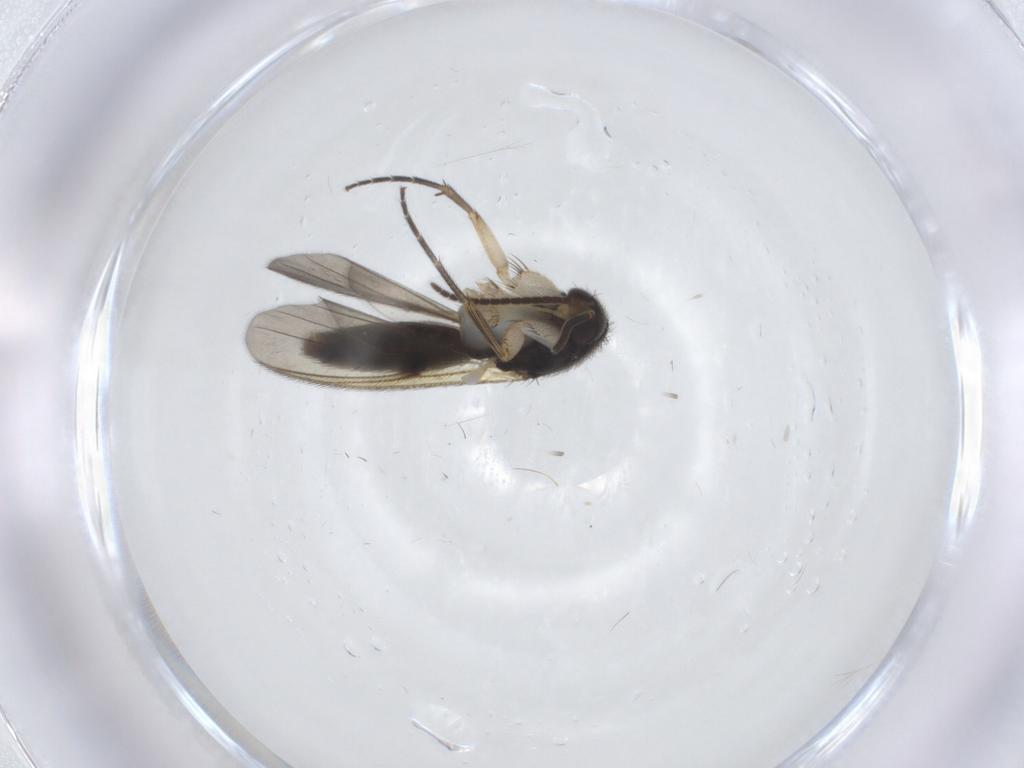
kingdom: Animalia
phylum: Arthropoda
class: Insecta
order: Diptera
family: Mycetophilidae
